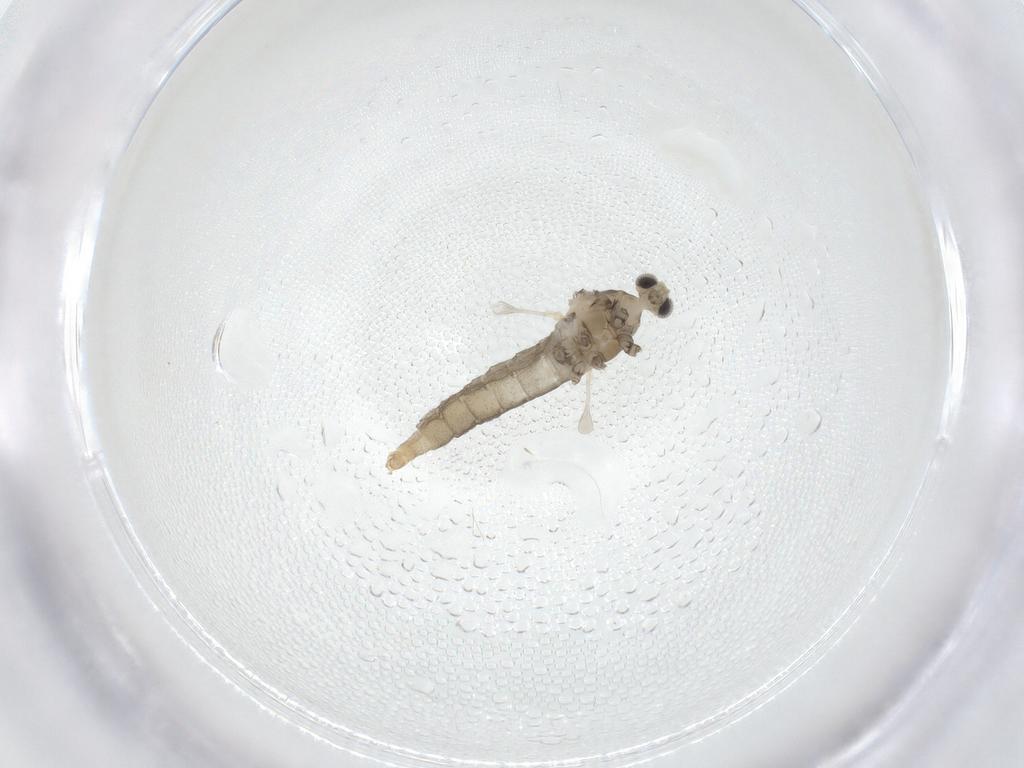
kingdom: Animalia
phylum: Arthropoda
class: Insecta
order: Diptera
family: Cecidomyiidae
